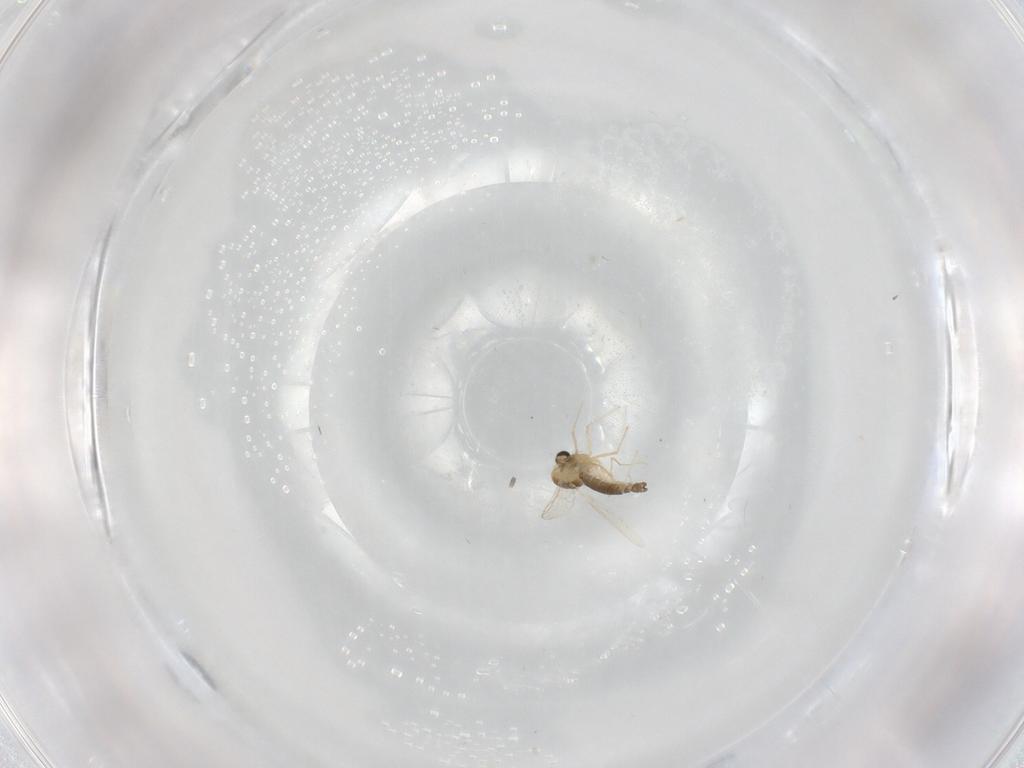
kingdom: Animalia
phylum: Arthropoda
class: Insecta
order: Diptera
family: Chironomidae
